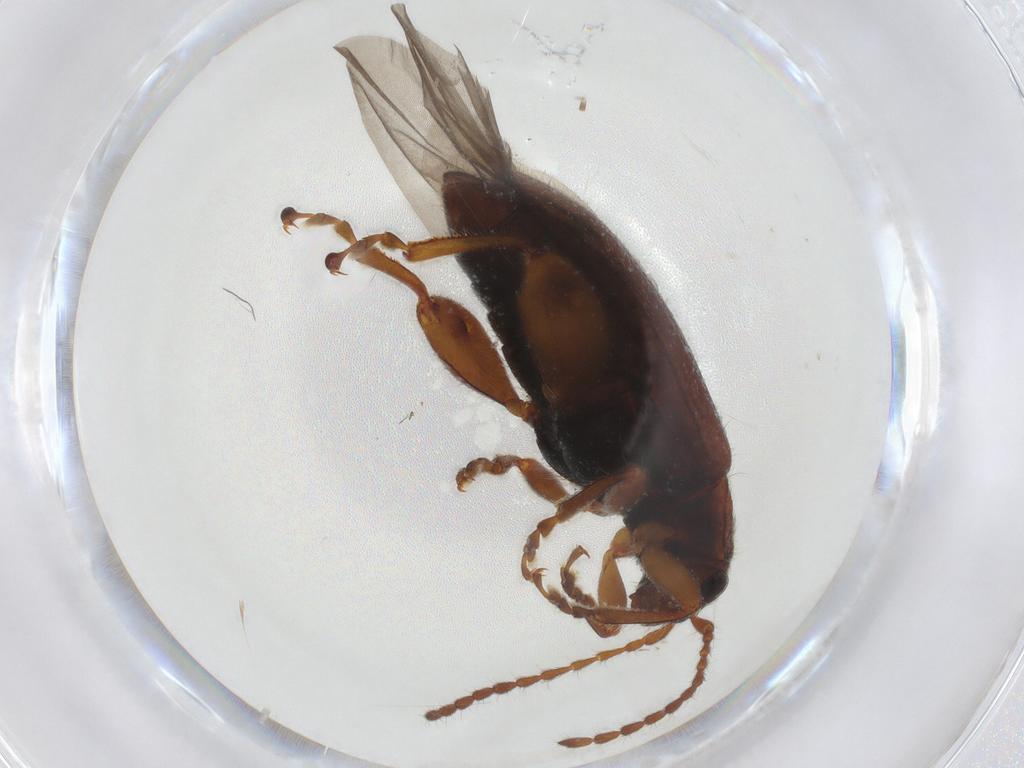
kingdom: Animalia
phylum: Arthropoda
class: Insecta
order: Coleoptera
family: Chrysomelidae
